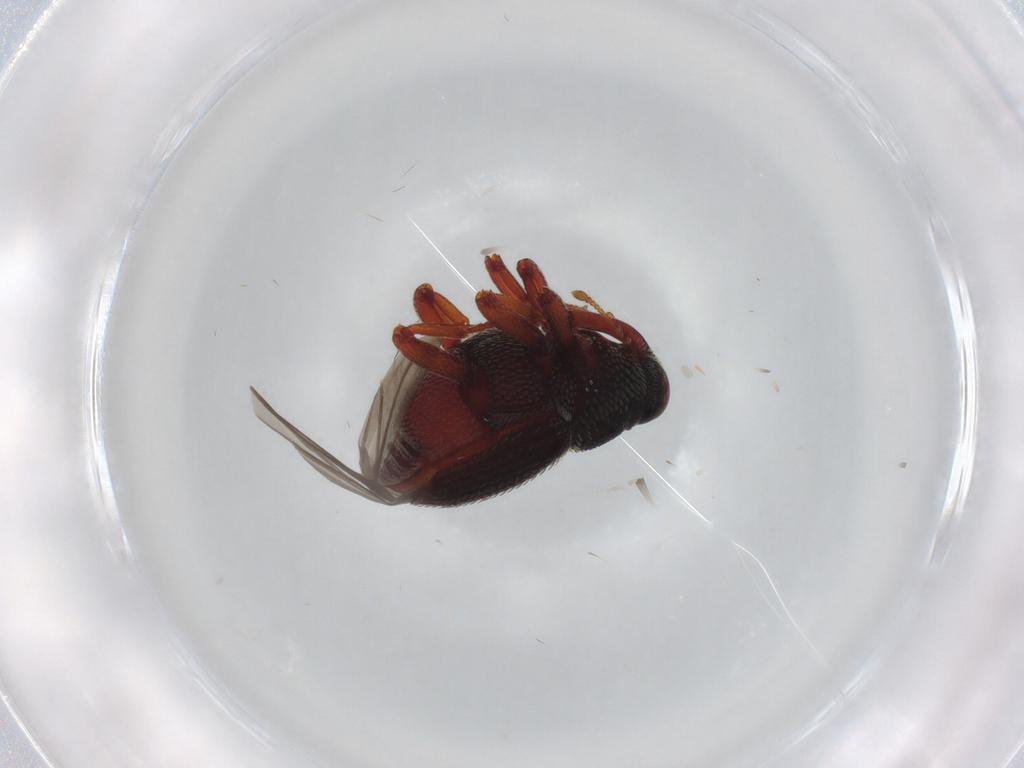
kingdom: Animalia
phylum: Arthropoda
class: Insecta
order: Coleoptera
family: Curculionidae
